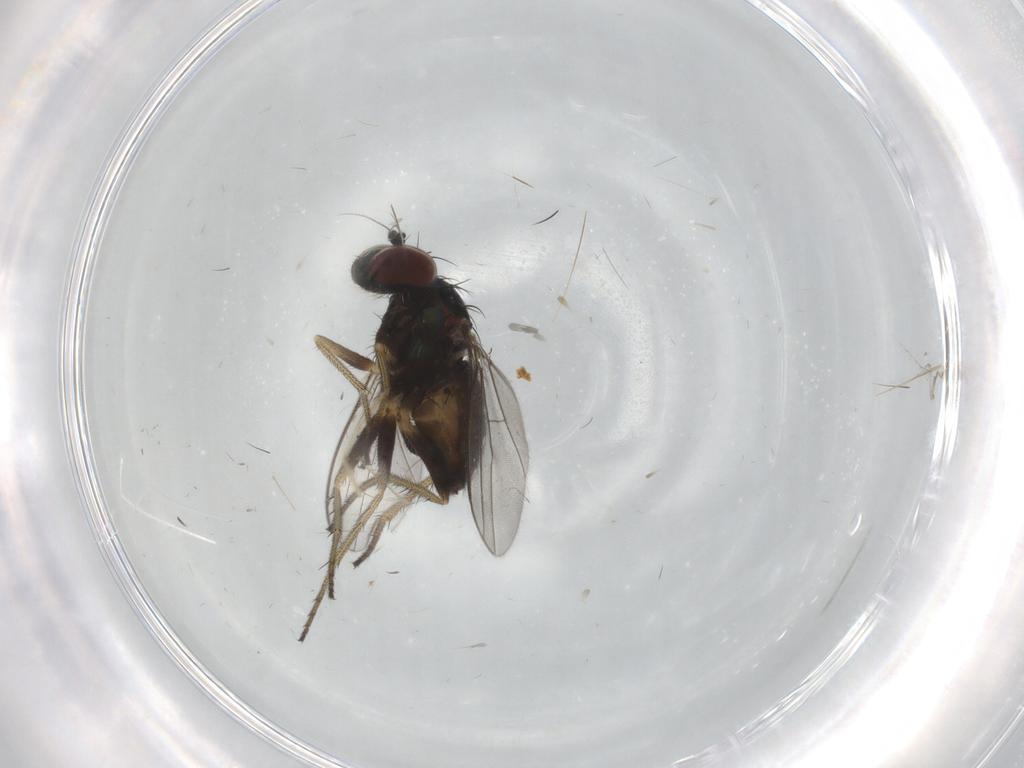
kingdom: Animalia
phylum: Arthropoda
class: Insecta
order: Diptera
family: Dolichopodidae
